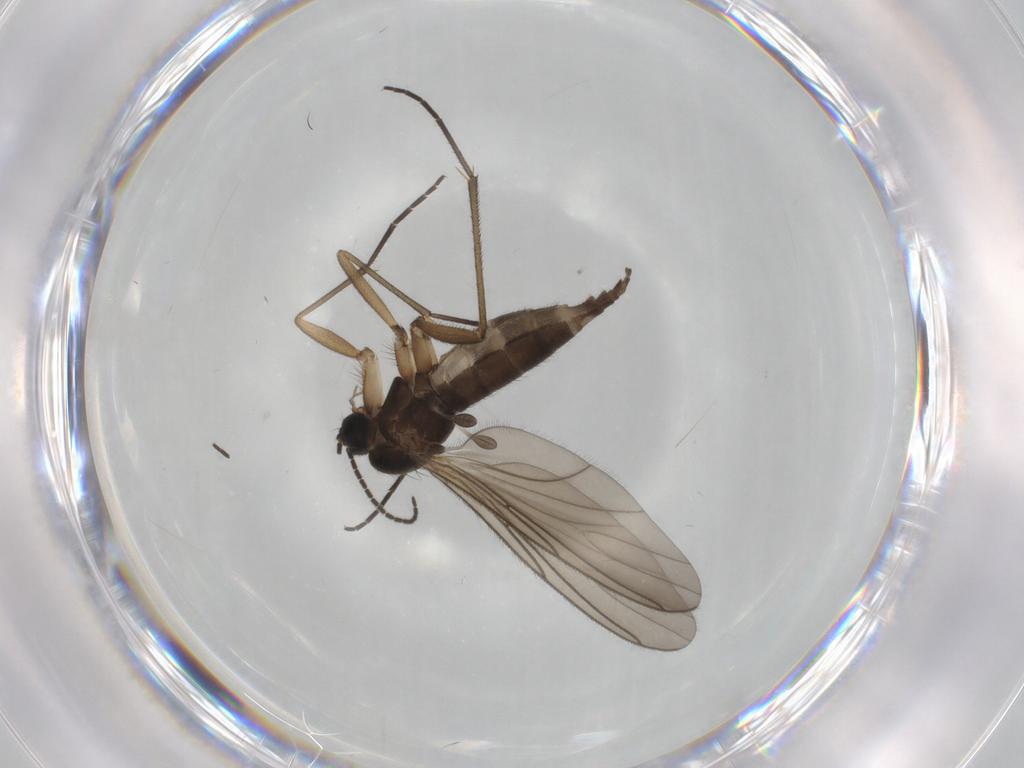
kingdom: Animalia
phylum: Arthropoda
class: Insecta
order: Diptera
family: Sciaridae
